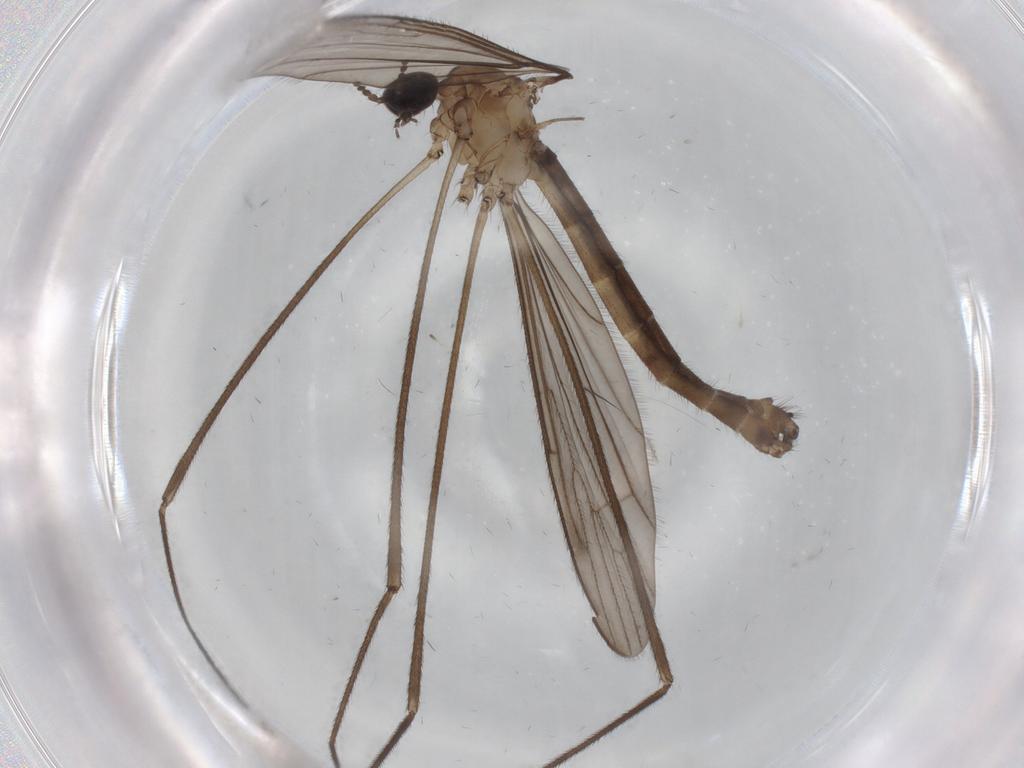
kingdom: Animalia
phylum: Arthropoda
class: Insecta
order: Diptera
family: Limoniidae
